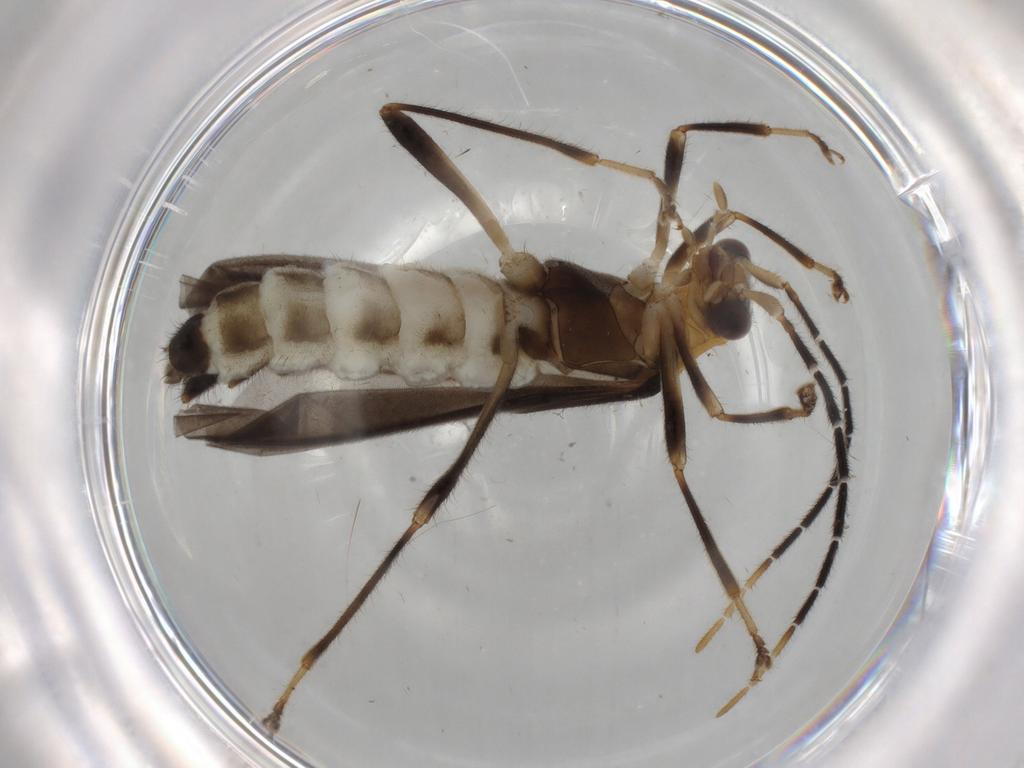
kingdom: Animalia
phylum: Arthropoda
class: Insecta
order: Coleoptera
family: Cantharidae
